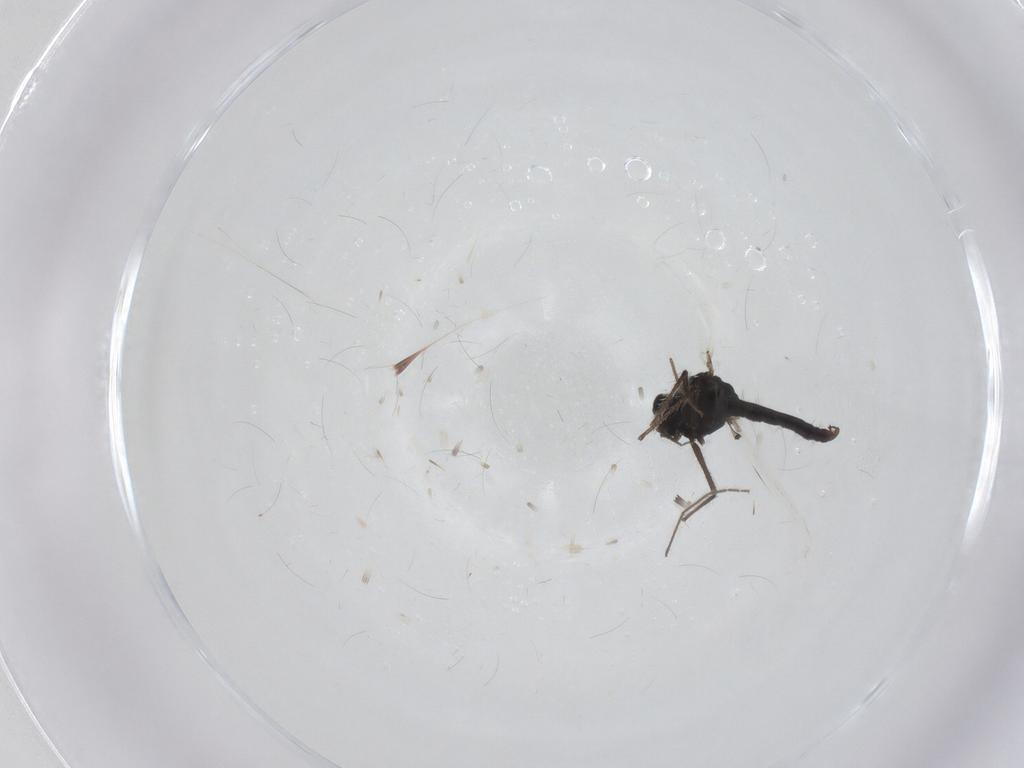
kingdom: Animalia
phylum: Arthropoda
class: Insecta
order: Diptera
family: Chironomidae
